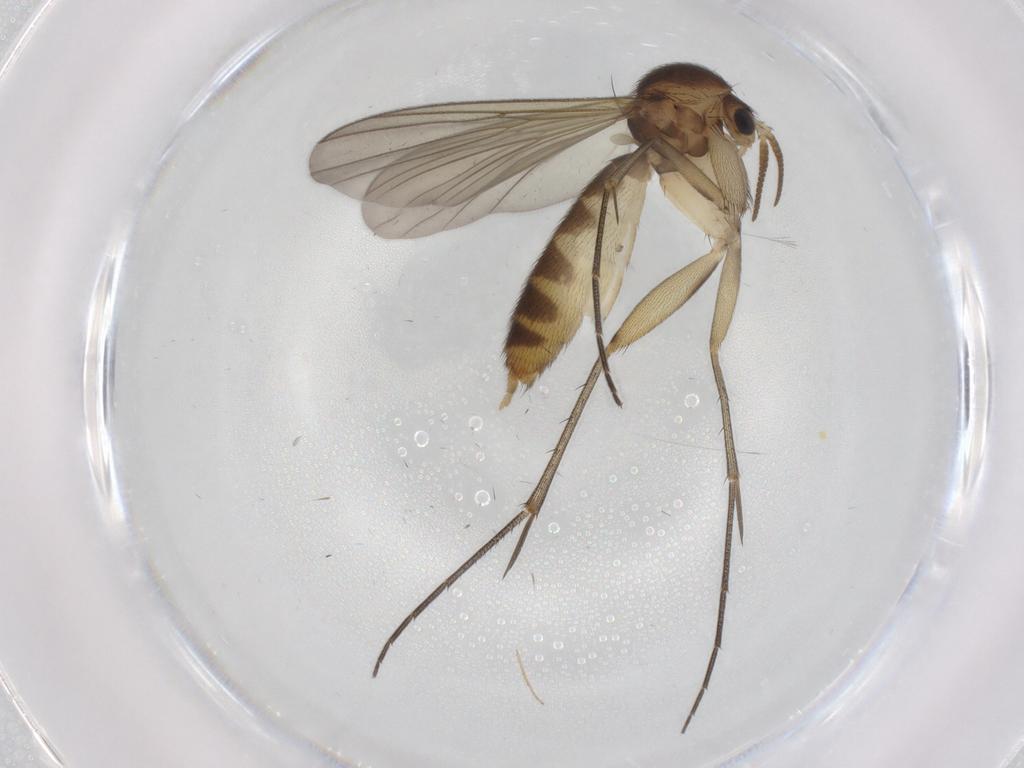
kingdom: Animalia
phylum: Arthropoda
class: Insecta
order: Diptera
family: Mycetophilidae
